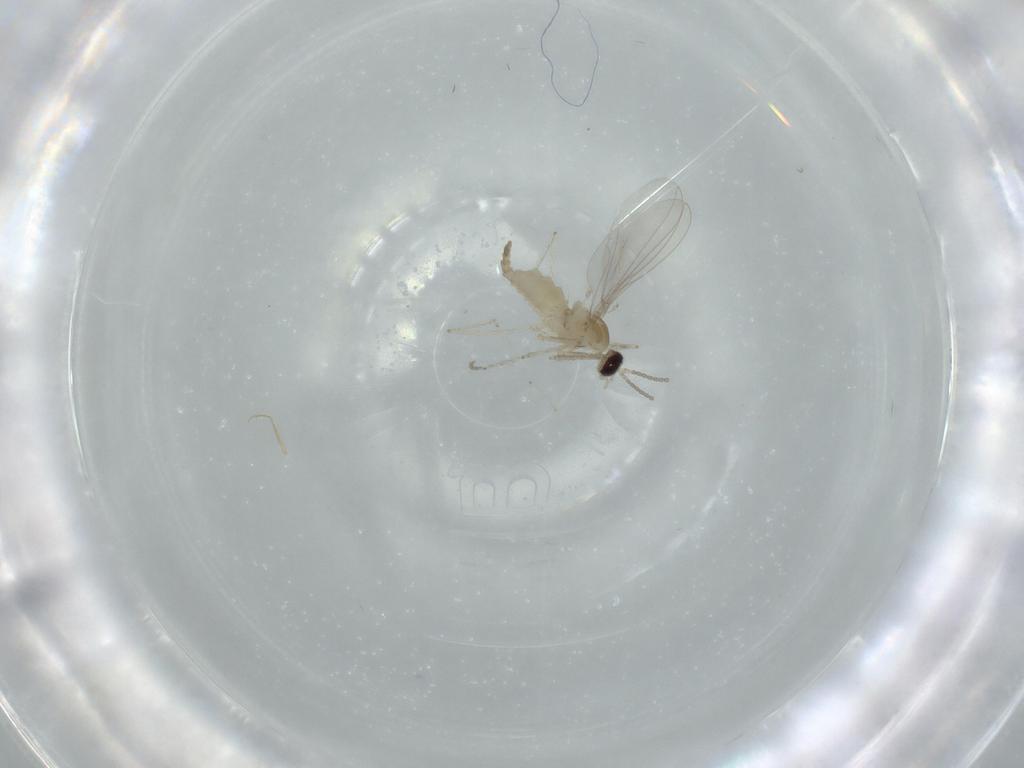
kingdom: Animalia
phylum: Arthropoda
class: Insecta
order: Diptera
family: Cecidomyiidae
